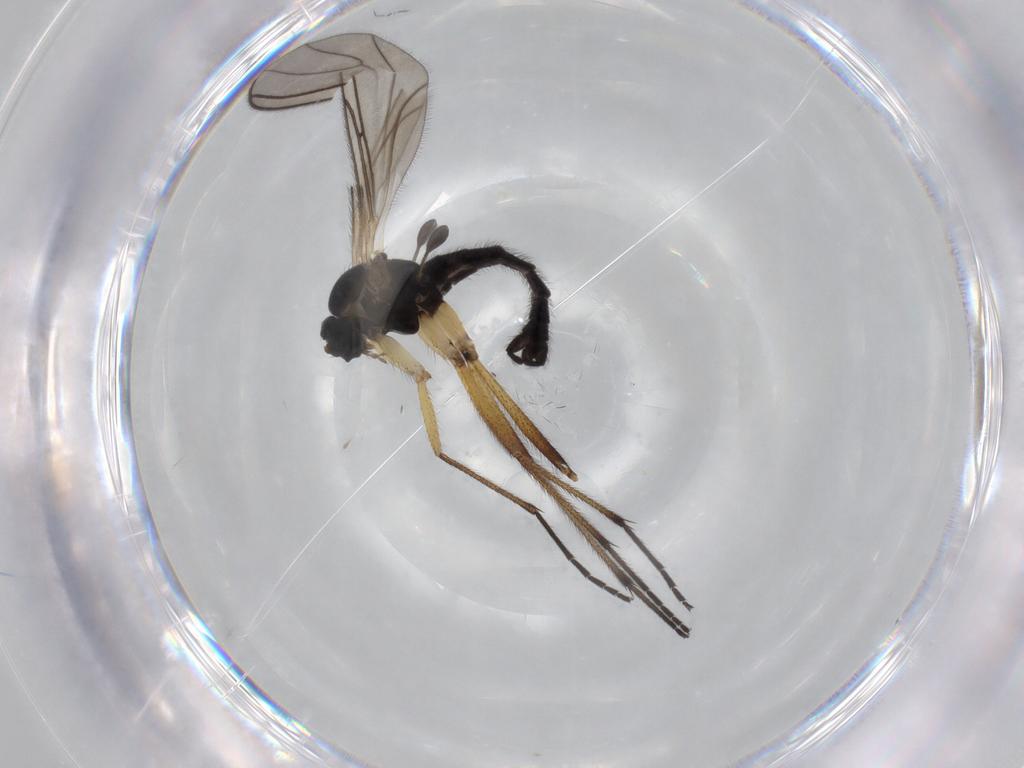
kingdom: Animalia
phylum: Arthropoda
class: Insecta
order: Diptera
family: Sciaridae
